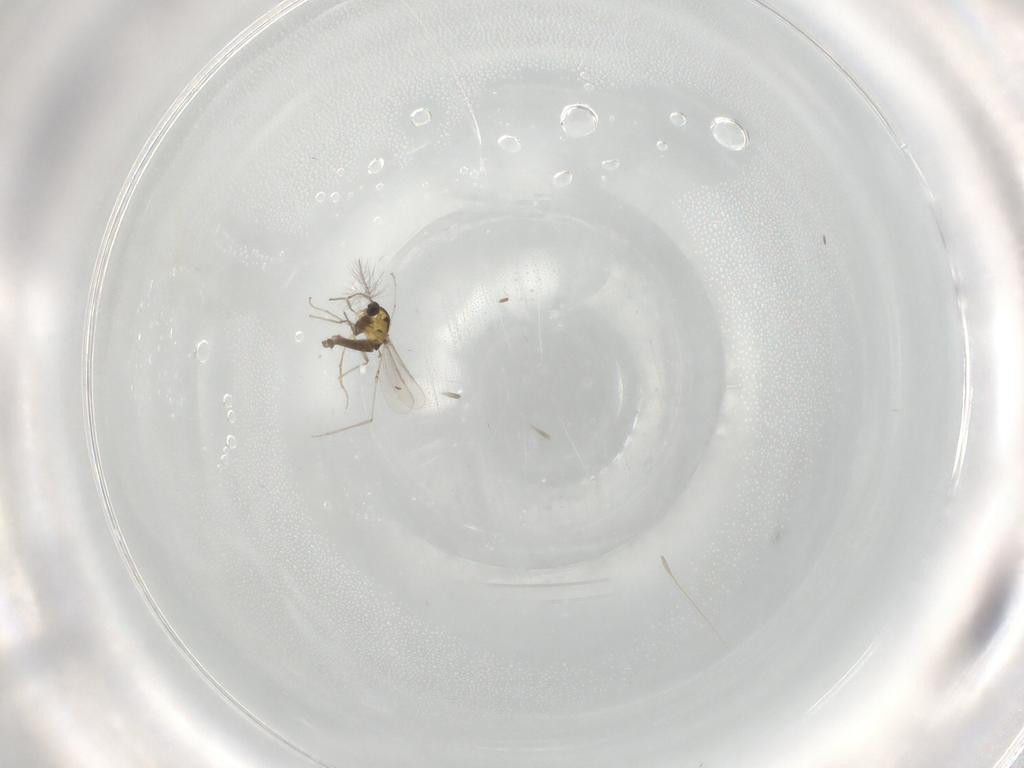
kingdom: Animalia
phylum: Arthropoda
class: Insecta
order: Diptera
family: Chironomidae
